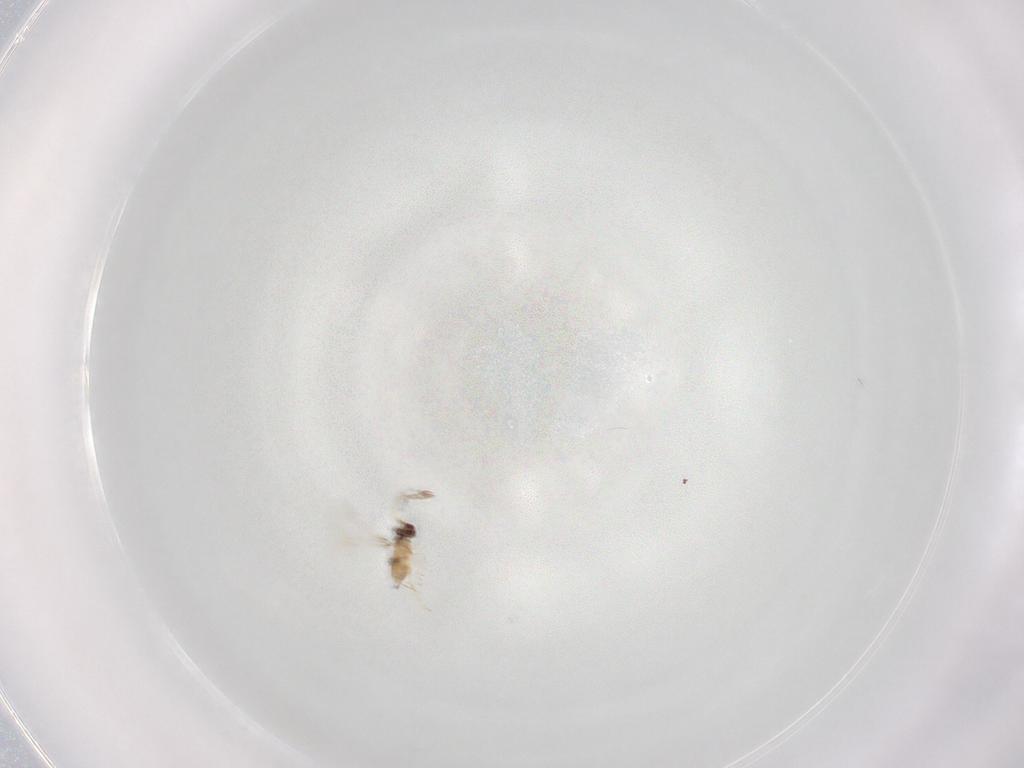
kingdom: Animalia
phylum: Arthropoda
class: Insecta
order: Hymenoptera
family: Mymaridae
